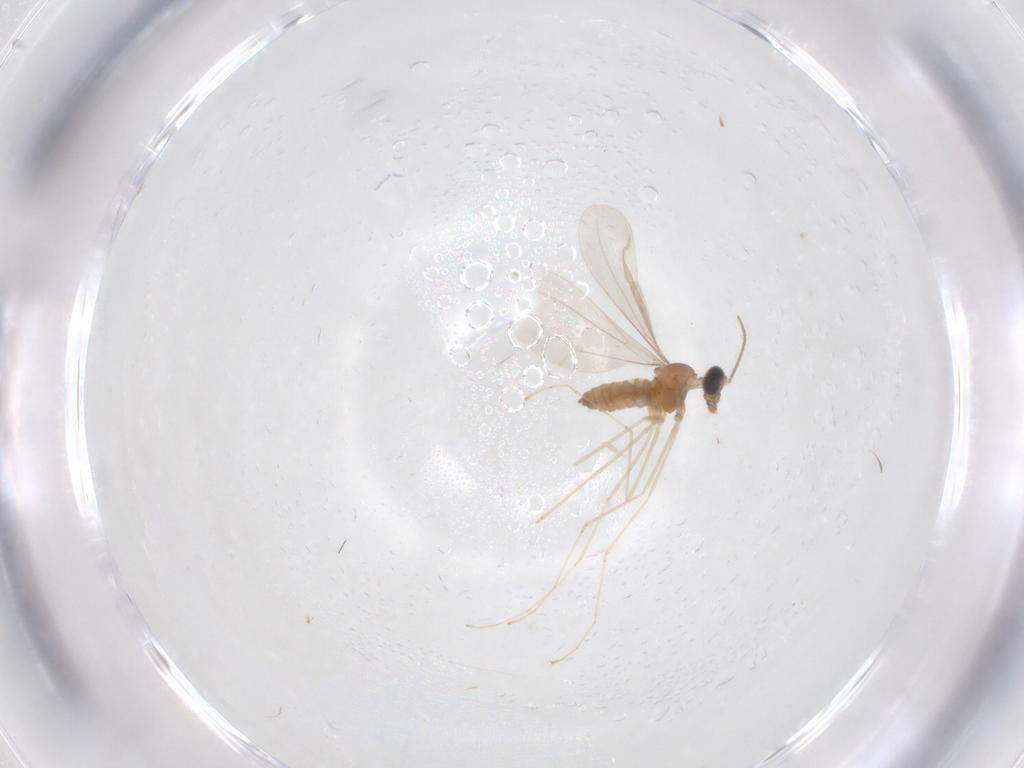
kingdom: Animalia
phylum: Arthropoda
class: Insecta
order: Diptera
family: Cecidomyiidae
